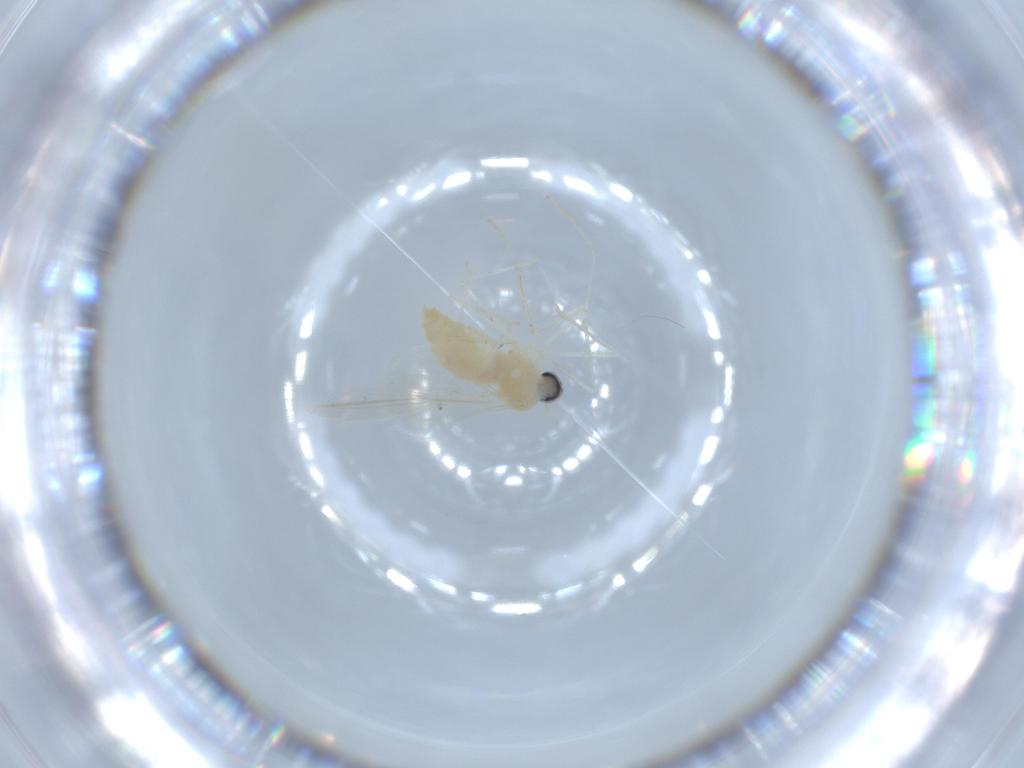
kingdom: Animalia
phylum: Arthropoda
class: Insecta
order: Diptera
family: Cecidomyiidae
